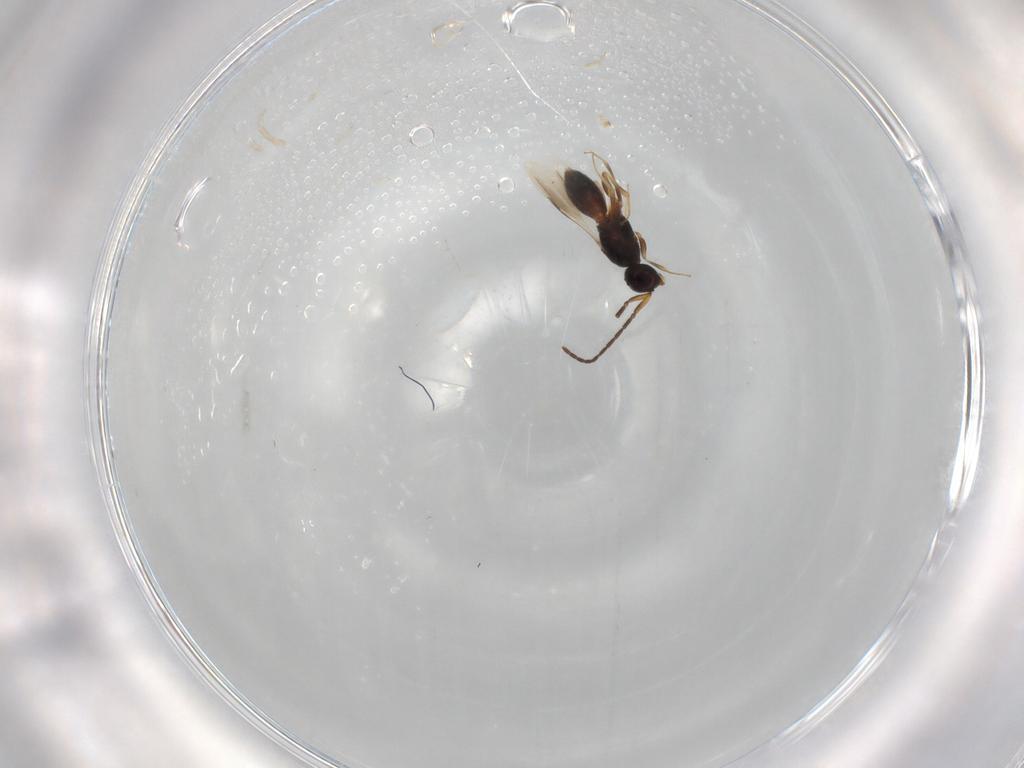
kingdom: Animalia
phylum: Arthropoda
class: Insecta
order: Hymenoptera
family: Megaspilidae
